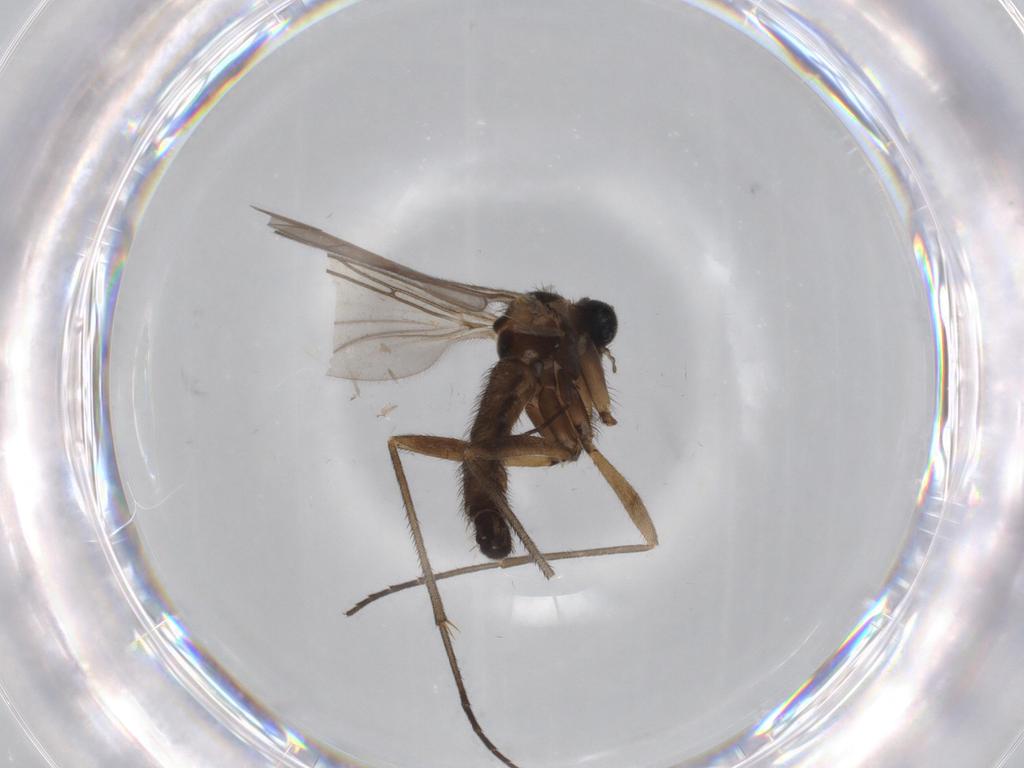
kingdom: Animalia
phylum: Arthropoda
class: Insecta
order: Diptera
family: Sciaridae
